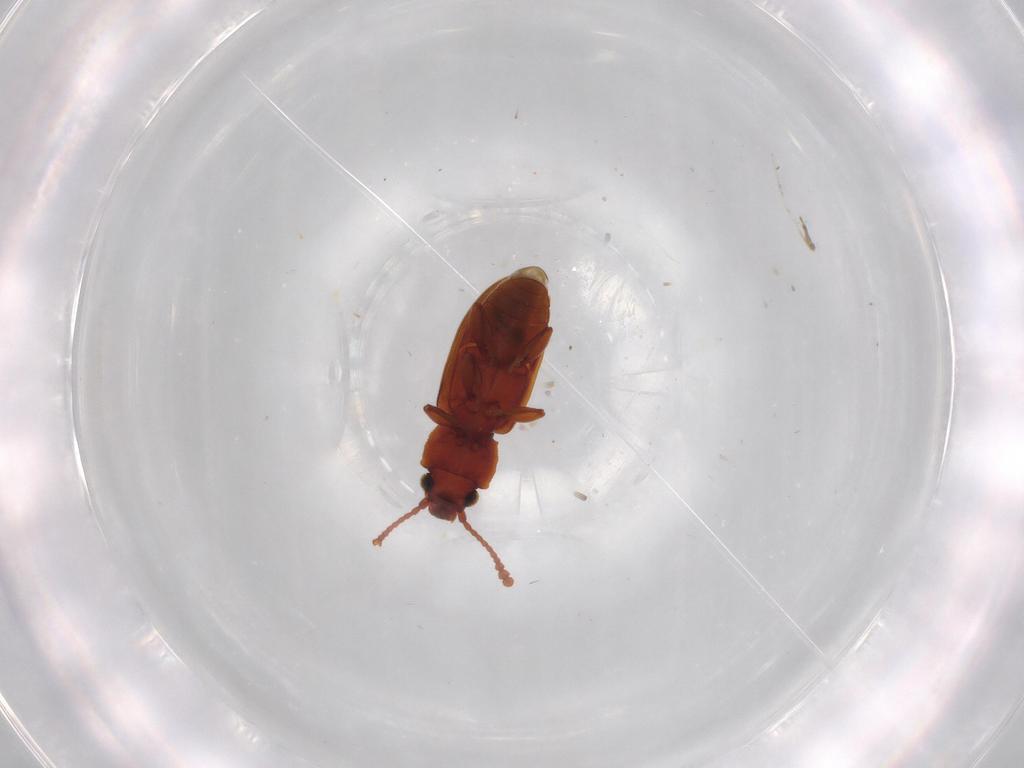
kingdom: Animalia
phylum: Arthropoda
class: Insecta
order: Coleoptera
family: Silvanidae
